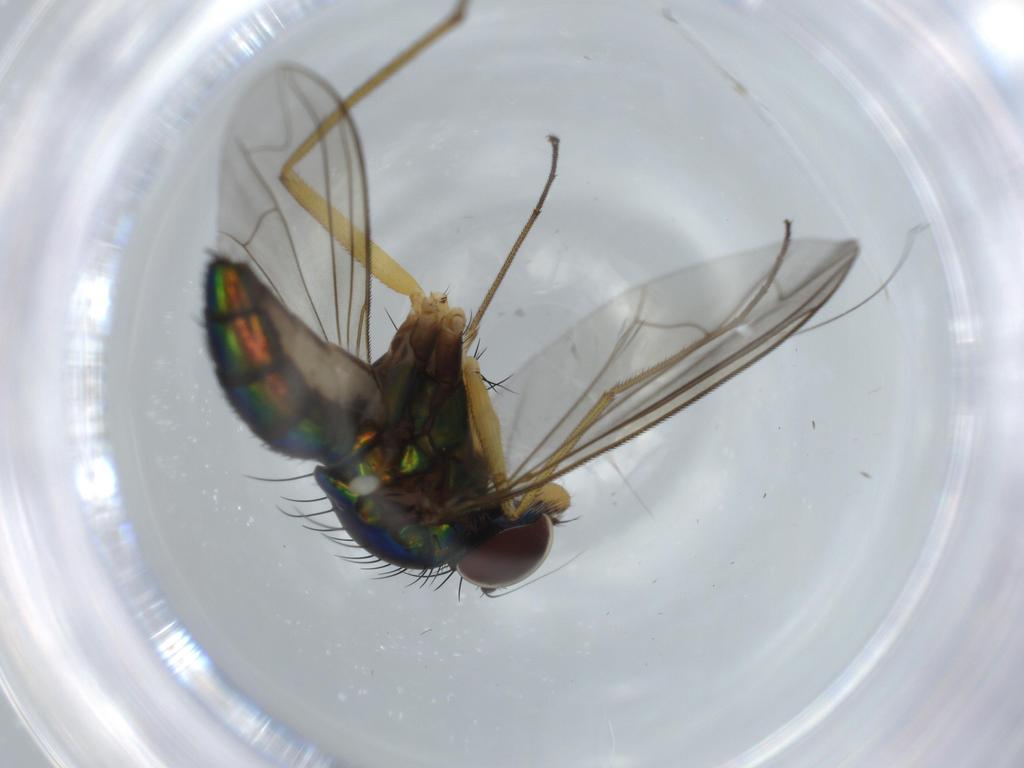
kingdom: Animalia
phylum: Arthropoda
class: Insecta
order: Diptera
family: Dolichopodidae
